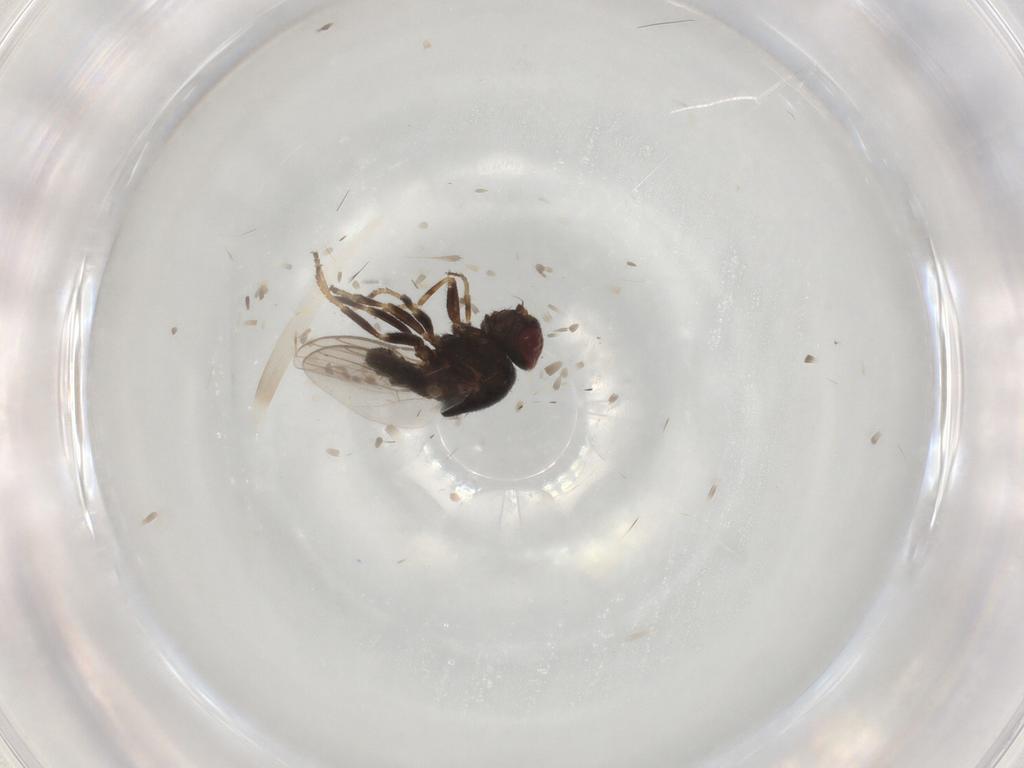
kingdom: Animalia
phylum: Arthropoda
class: Insecta
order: Diptera
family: Chloropidae
